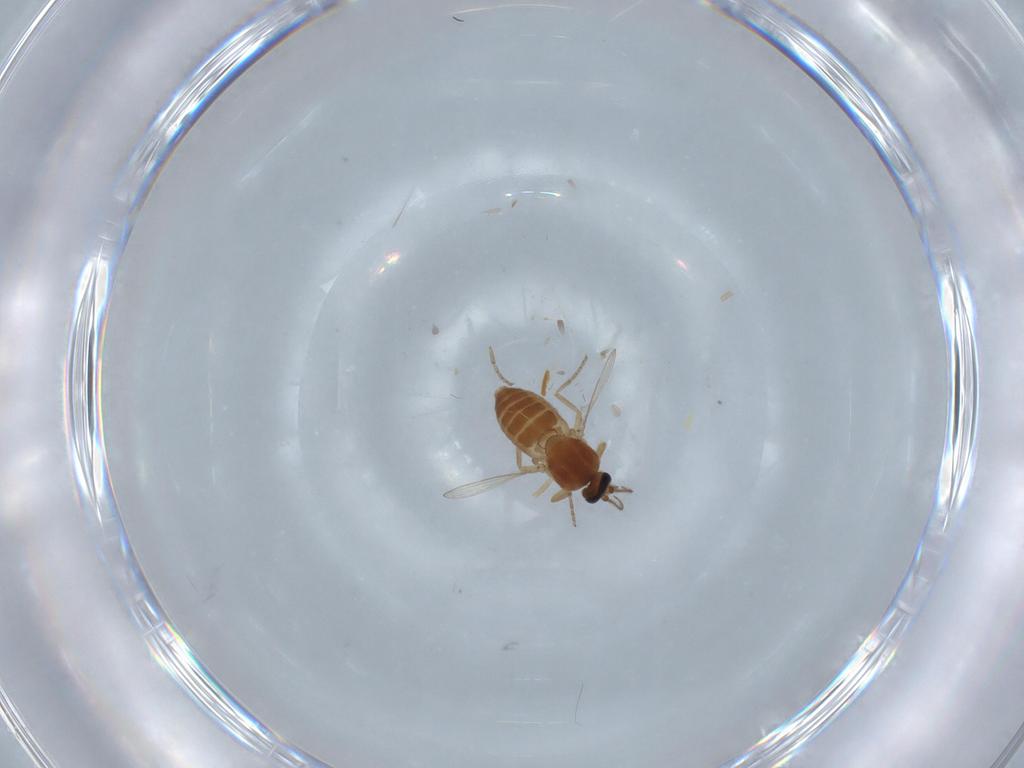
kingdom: Animalia
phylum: Arthropoda
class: Insecta
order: Diptera
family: Ceratopogonidae
